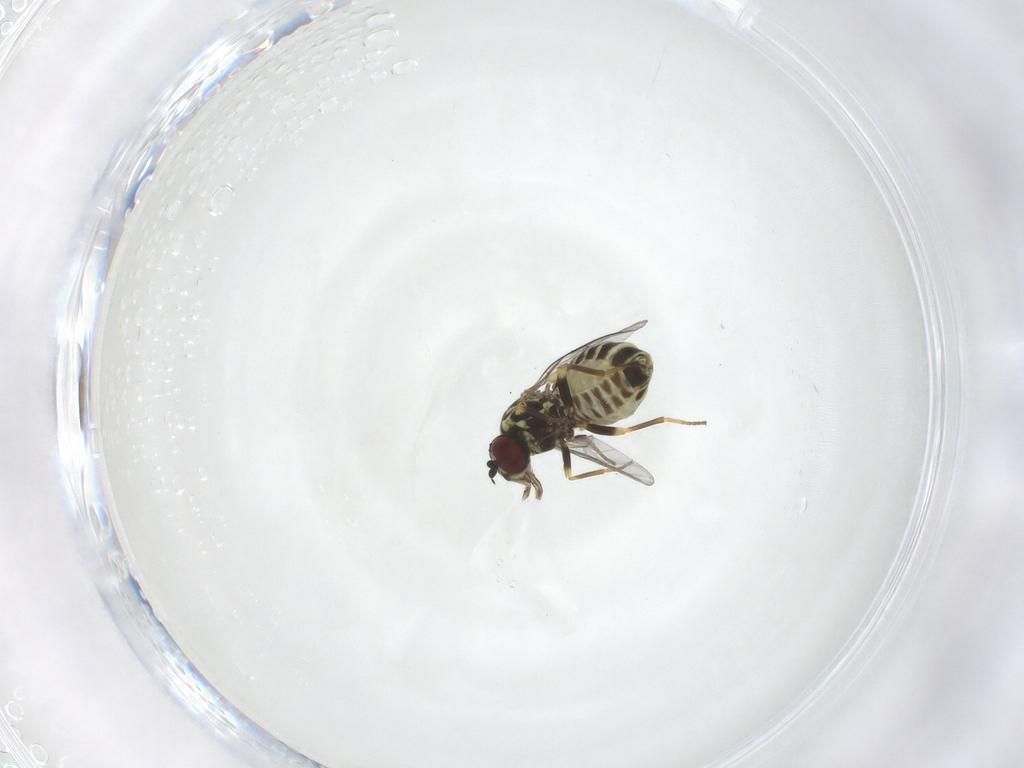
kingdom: Animalia
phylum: Arthropoda
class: Insecta
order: Diptera
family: Mythicomyiidae
